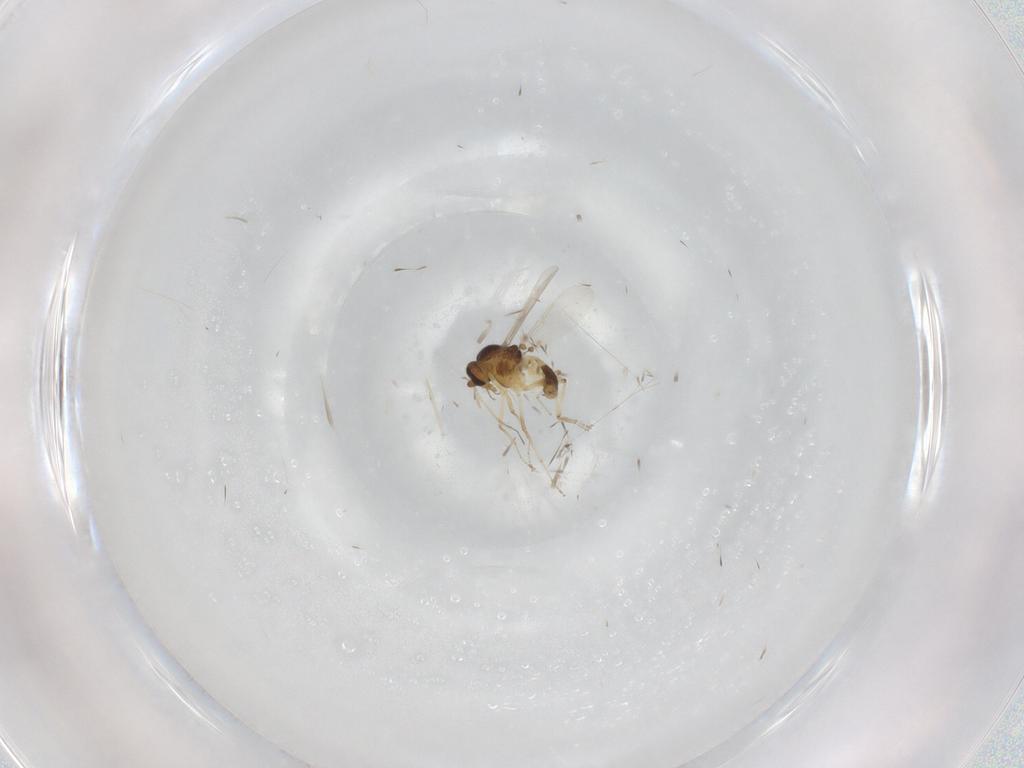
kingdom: Animalia
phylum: Arthropoda
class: Insecta
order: Diptera
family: Ceratopogonidae
